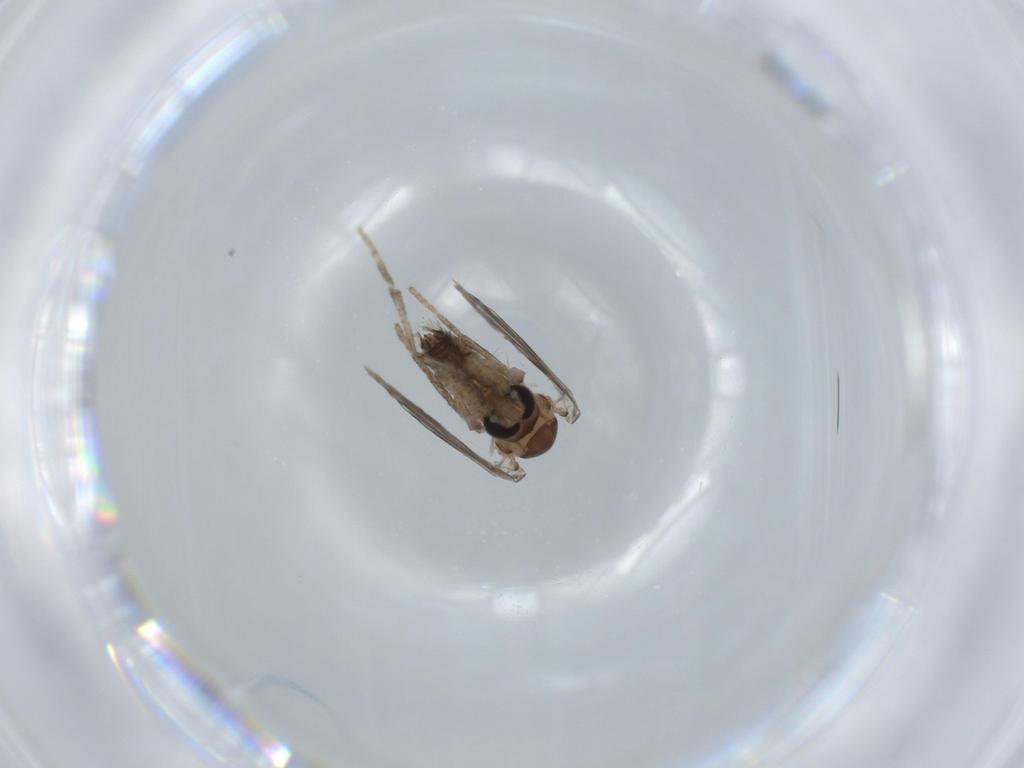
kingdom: Animalia
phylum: Arthropoda
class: Insecta
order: Diptera
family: Psychodidae
